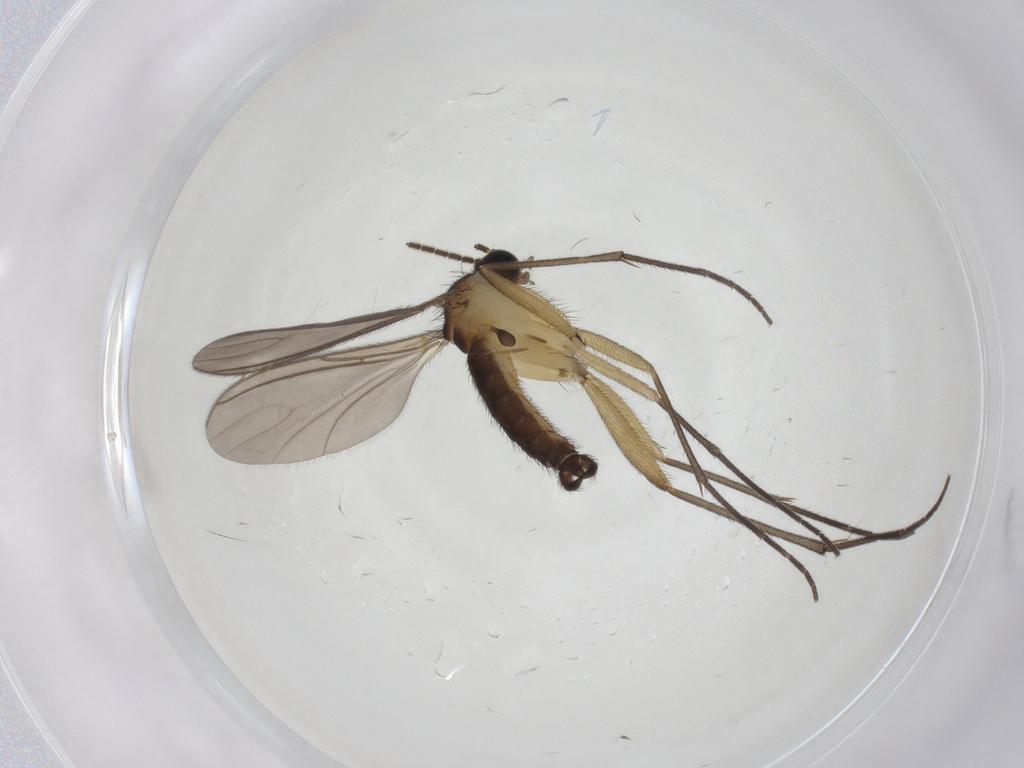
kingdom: Animalia
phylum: Arthropoda
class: Insecta
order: Diptera
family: Sciaridae
